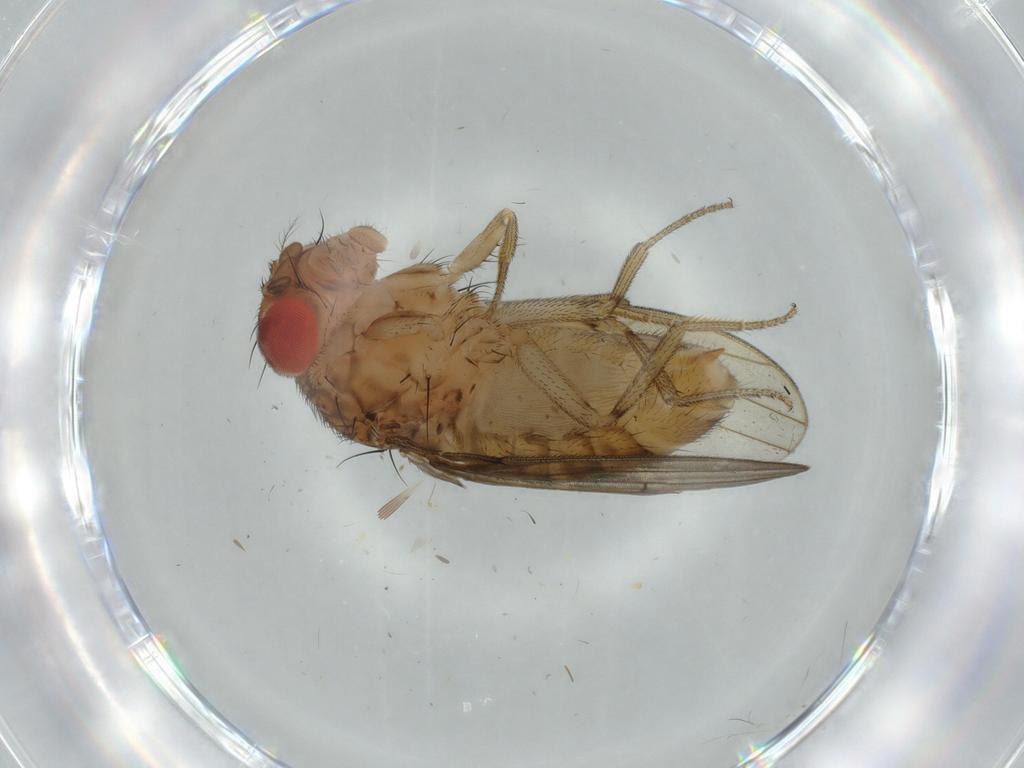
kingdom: Animalia
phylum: Arthropoda
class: Insecta
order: Diptera
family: Drosophilidae
